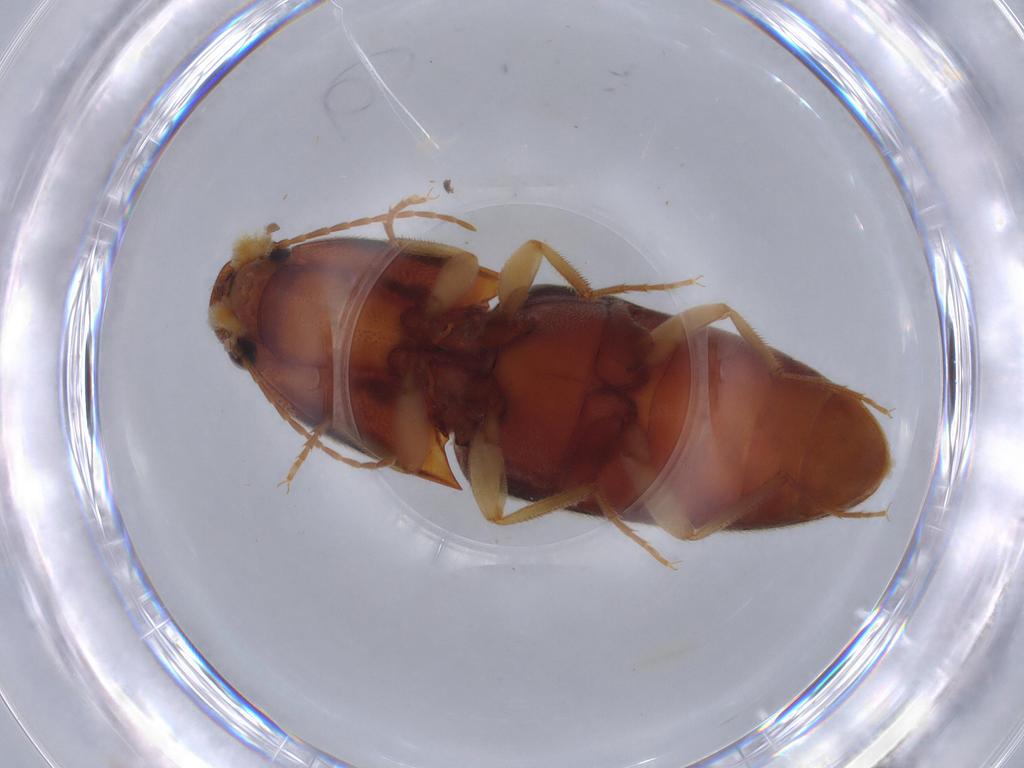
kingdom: Animalia
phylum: Arthropoda
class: Insecta
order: Coleoptera
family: Elateridae
